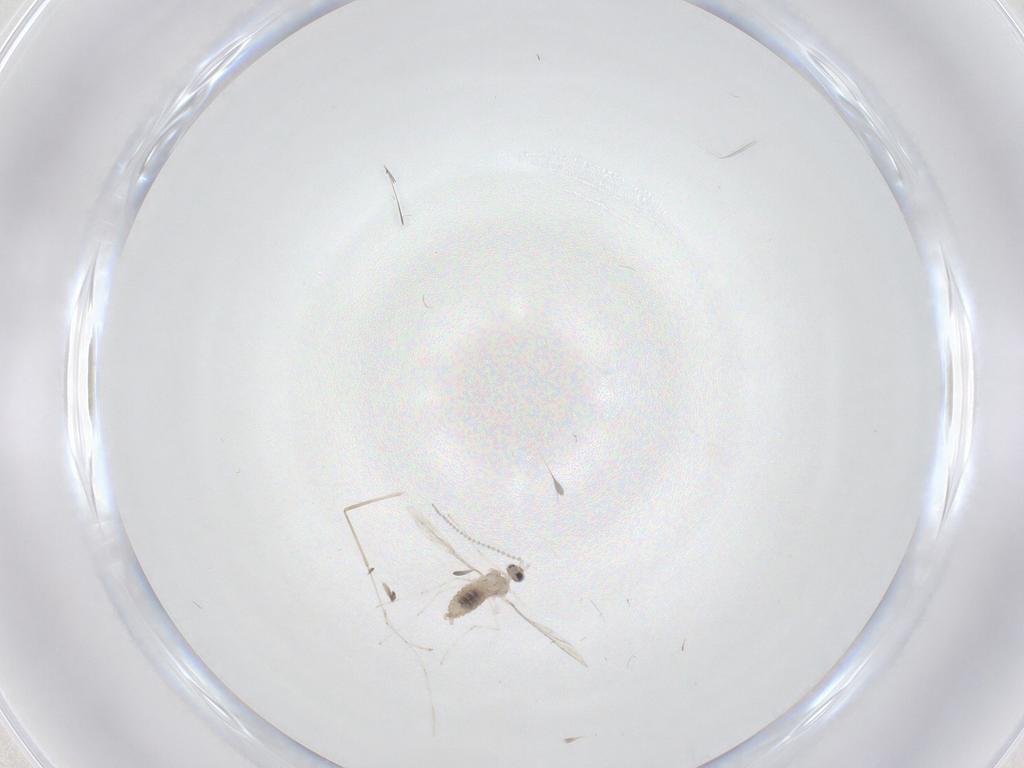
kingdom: Animalia
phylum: Arthropoda
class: Insecta
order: Diptera
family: Cecidomyiidae
